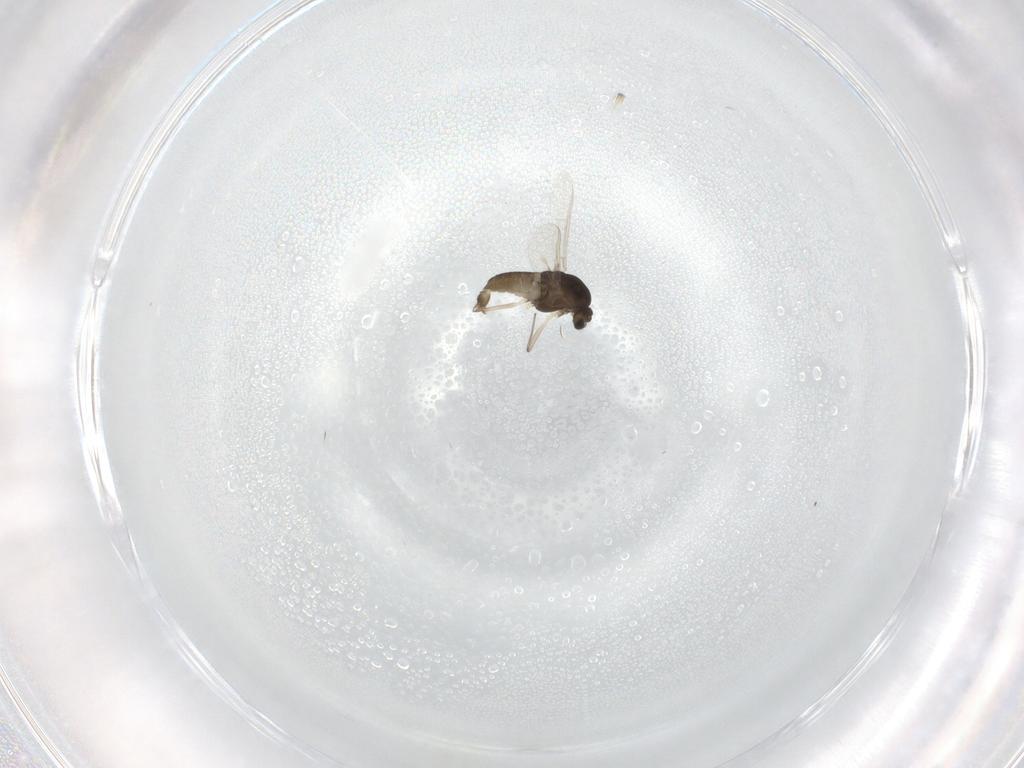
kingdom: Animalia
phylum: Arthropoda
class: Insecta
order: Diptera
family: Chironomidae
